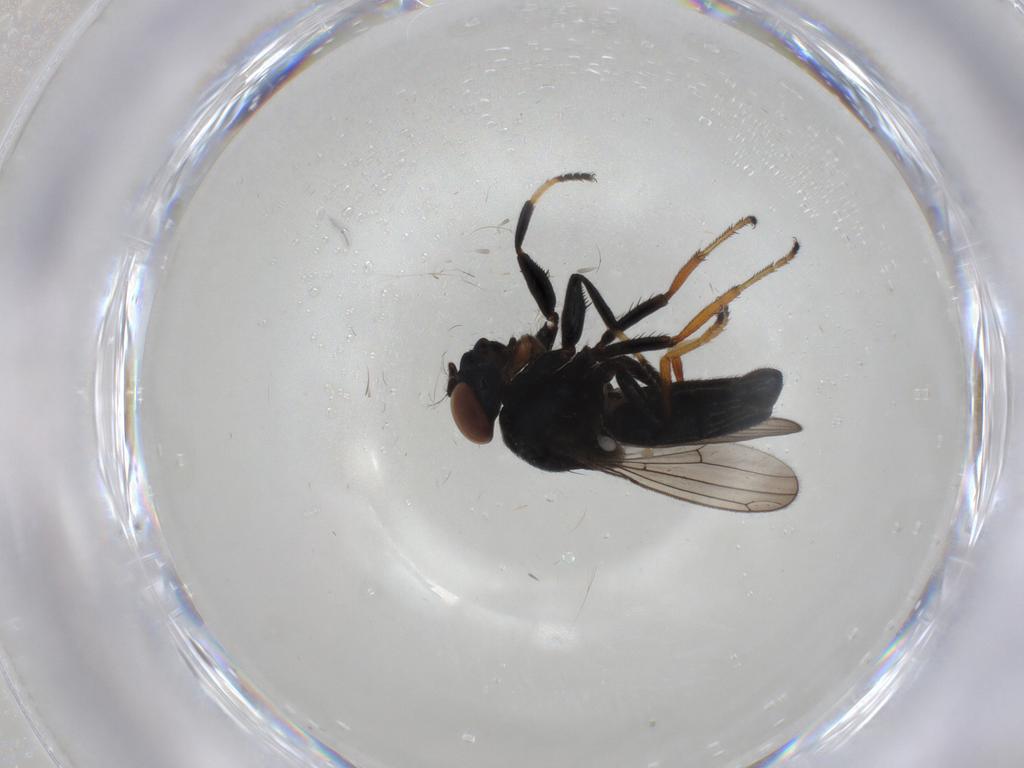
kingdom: Animalia
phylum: Arthropoda
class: Insecta
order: Diptera
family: Ephydridae
